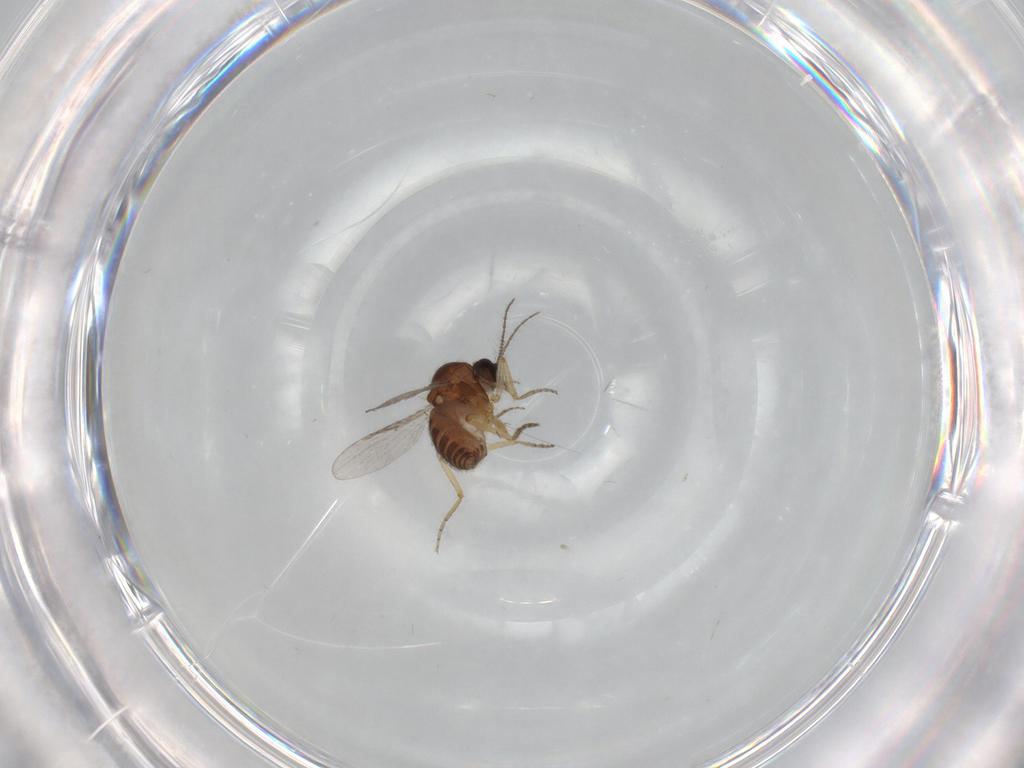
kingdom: Animalia
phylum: Arthropoda
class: Insecta
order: Diptera
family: Ceratopogonidae
